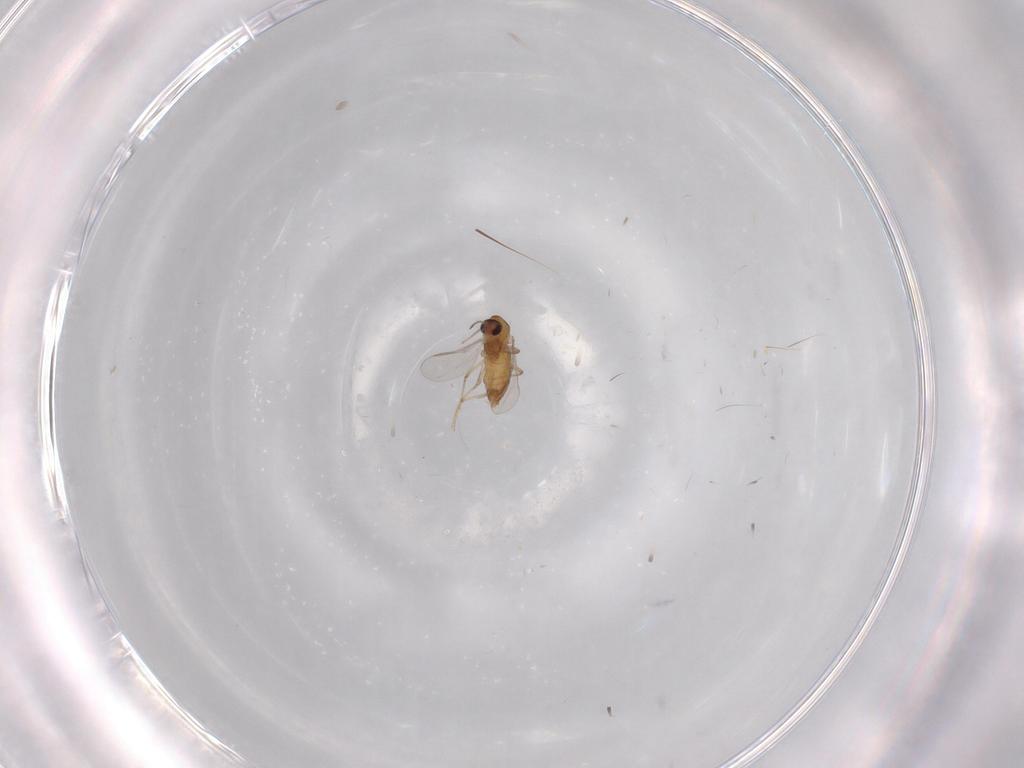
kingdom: Animalia
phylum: Arthropoda
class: Insecta
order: Diptera
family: Chironomidae
